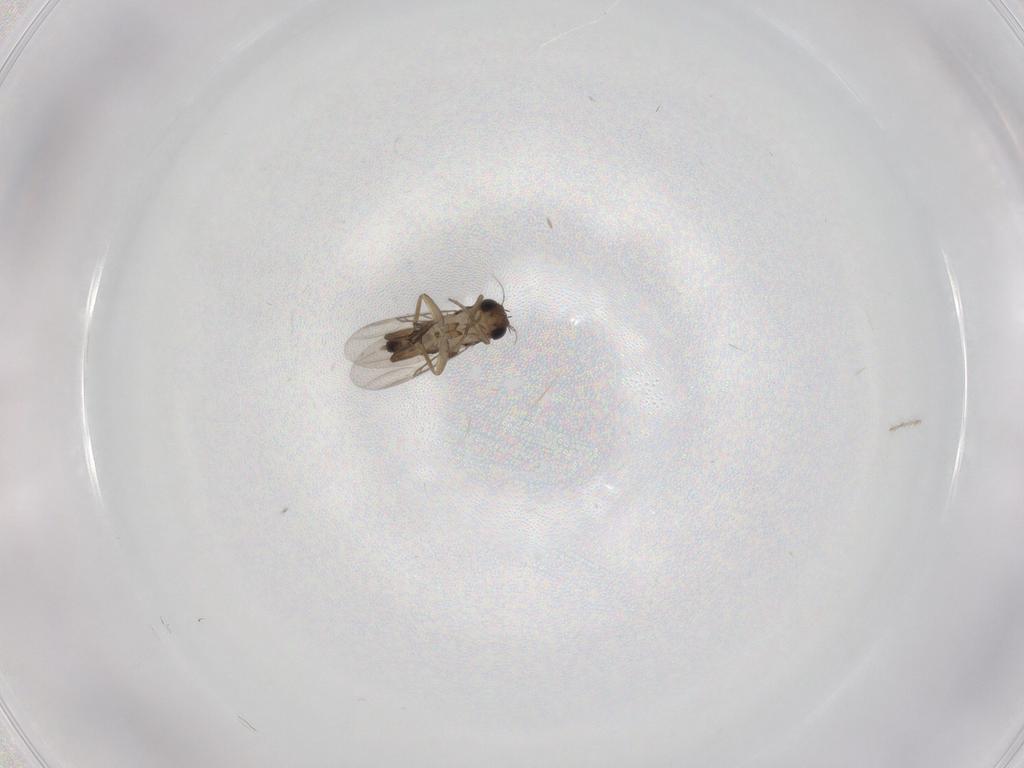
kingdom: Animalia
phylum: Arthropoda
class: Insecta
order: Diptera
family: Phoridae
